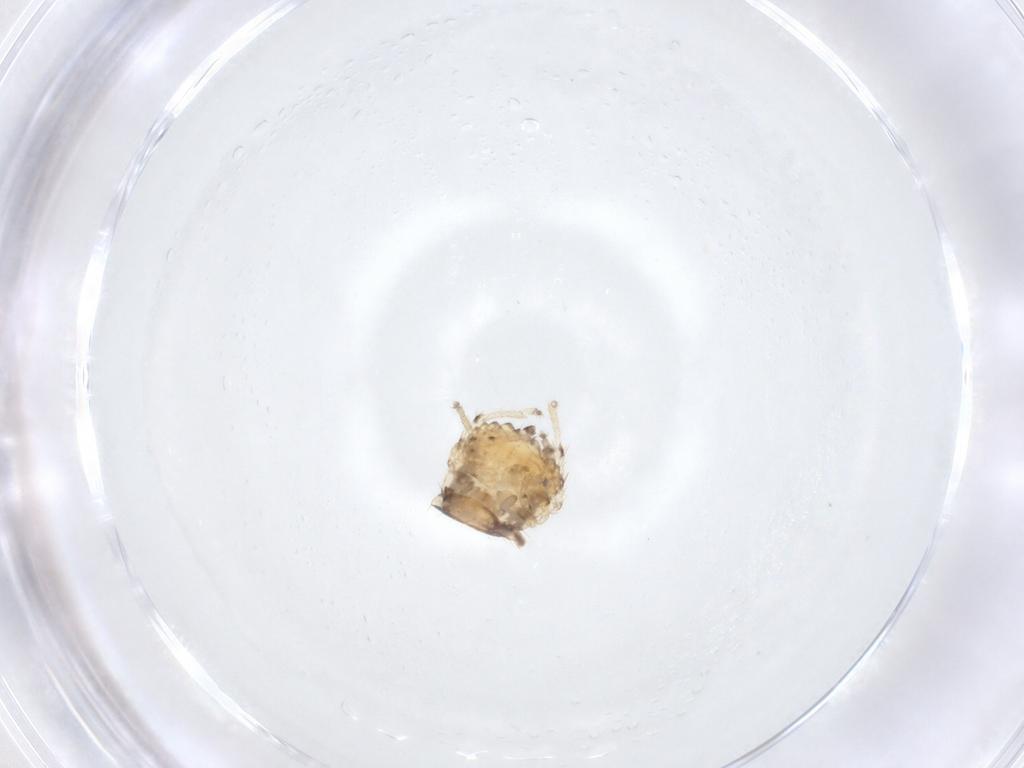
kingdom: Animalia
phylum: Arthropoda
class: Insecta
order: Blattodea
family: Ectobiidae
